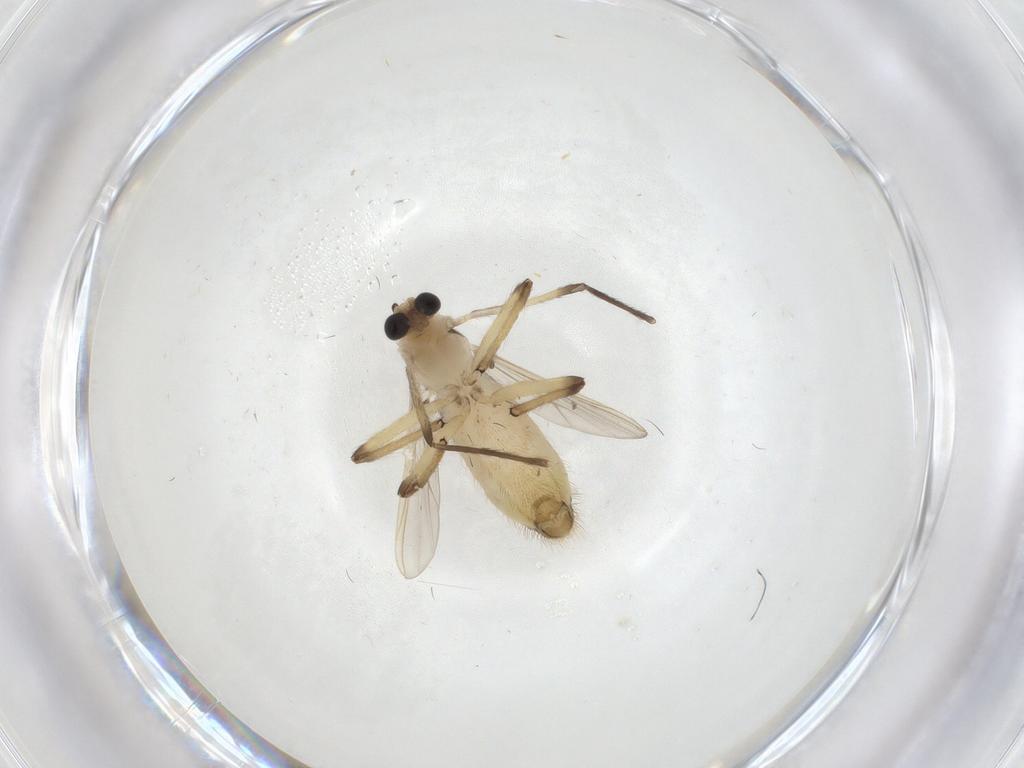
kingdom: Animalia
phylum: Arthropoda
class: Insecta
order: Diptera
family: Chironomidae
